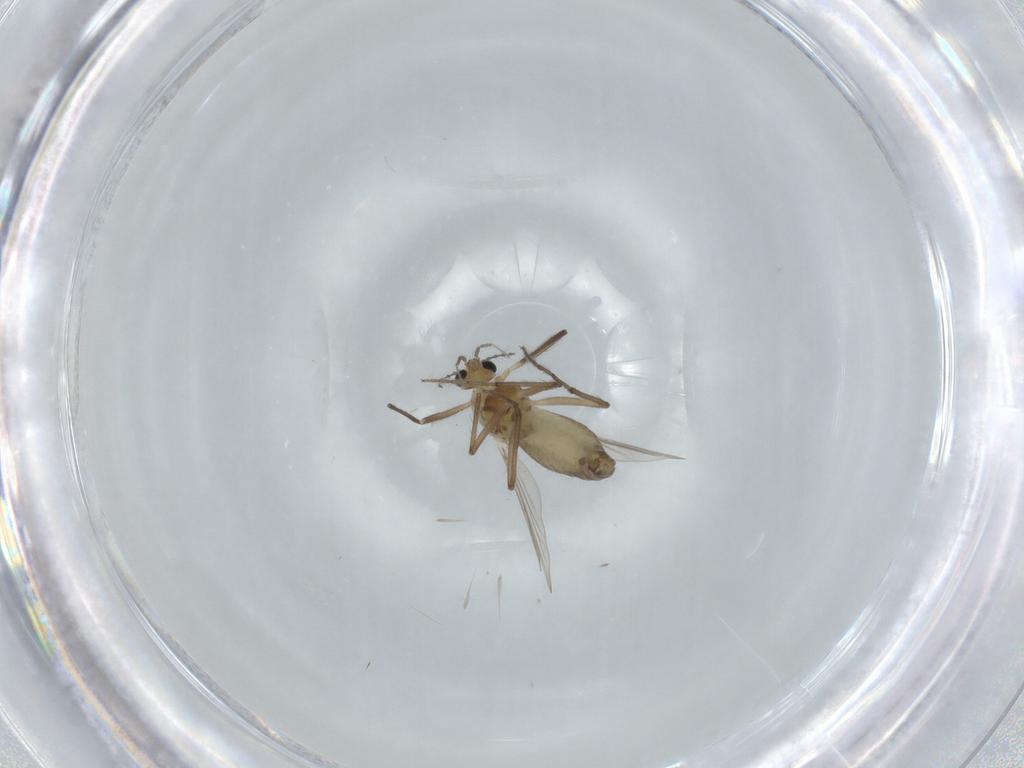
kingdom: Animalia
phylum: Arthropoda
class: Insecta
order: Diptera
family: Chironomidae
